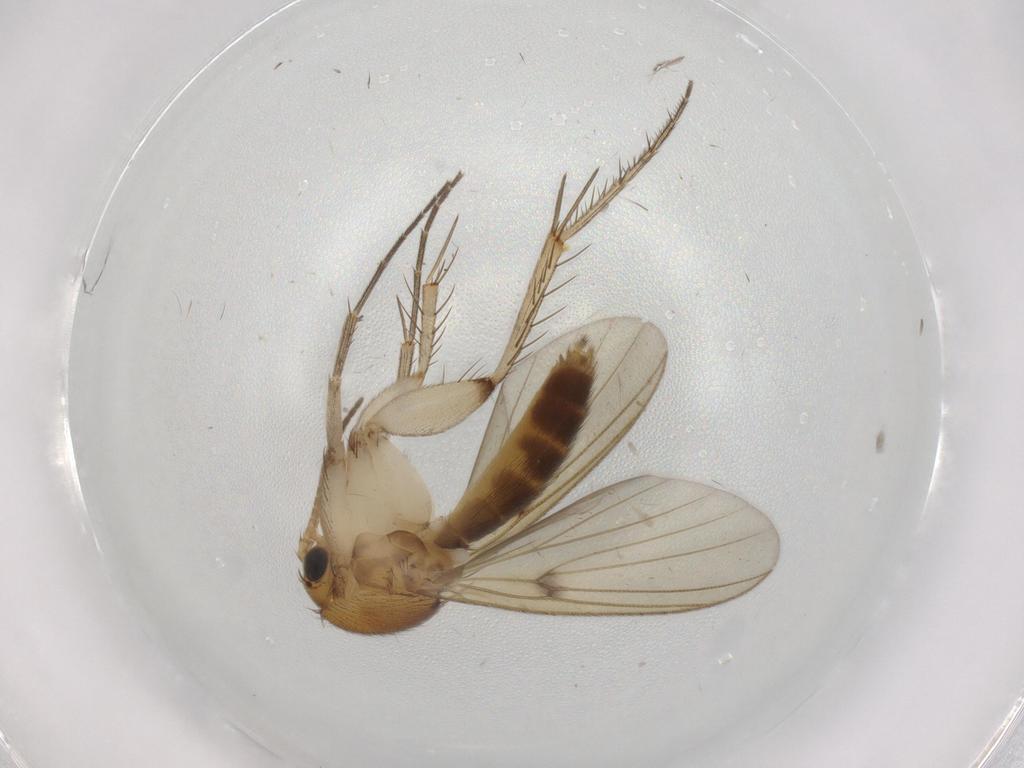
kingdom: Animalia
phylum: Arthropoda
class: Insecta
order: Diptera
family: Mycetophilidae
